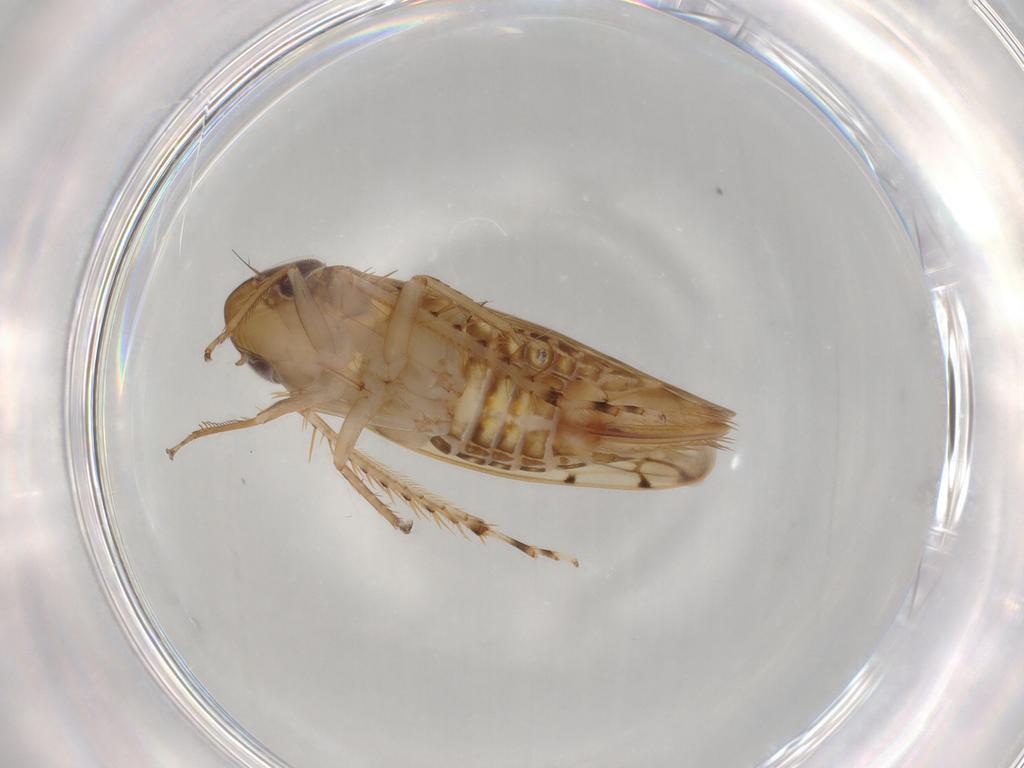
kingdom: Animalia
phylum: Arthropoda
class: Insecta
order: Hemiptera
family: Cicadellidae
